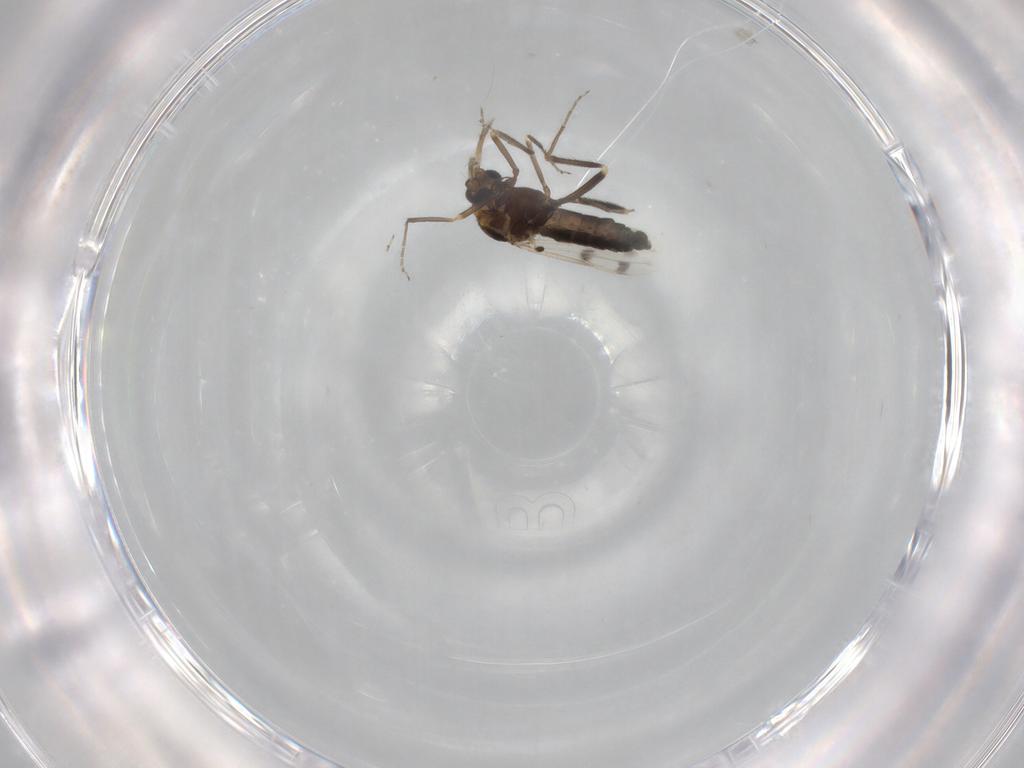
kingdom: Animalia
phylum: Arthropoda
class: Insecta
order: Diptera
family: Ceratopogonidae
